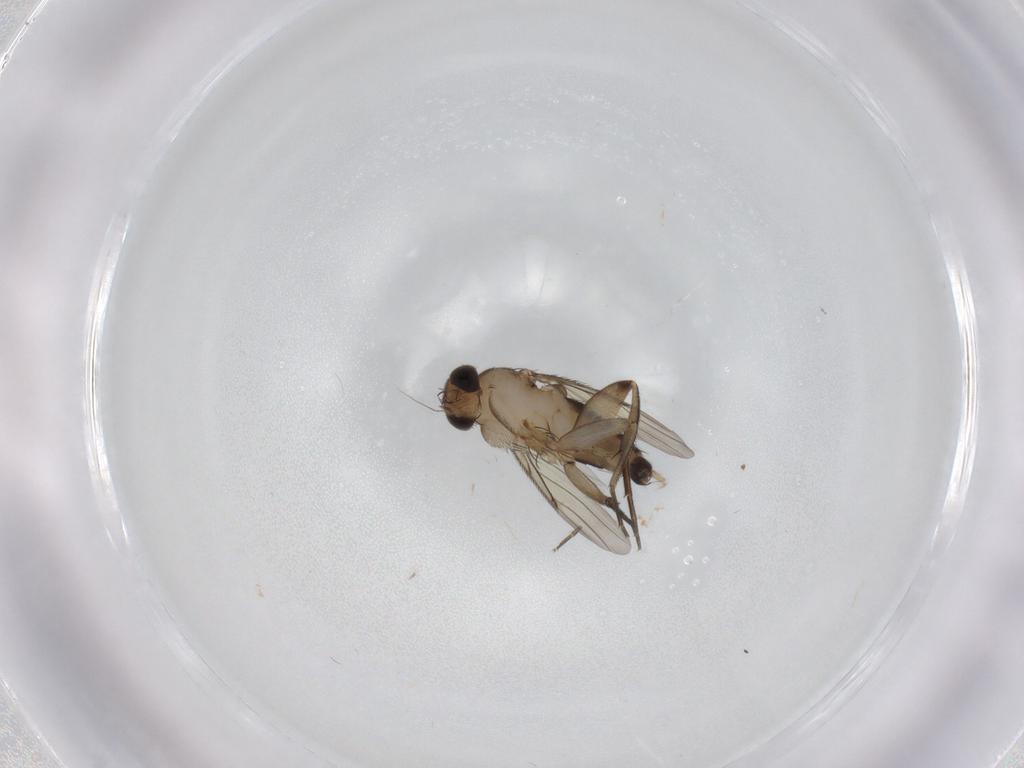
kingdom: Animalia
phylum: Arthropoda
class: Insecta
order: Diptera
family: Phoridae
